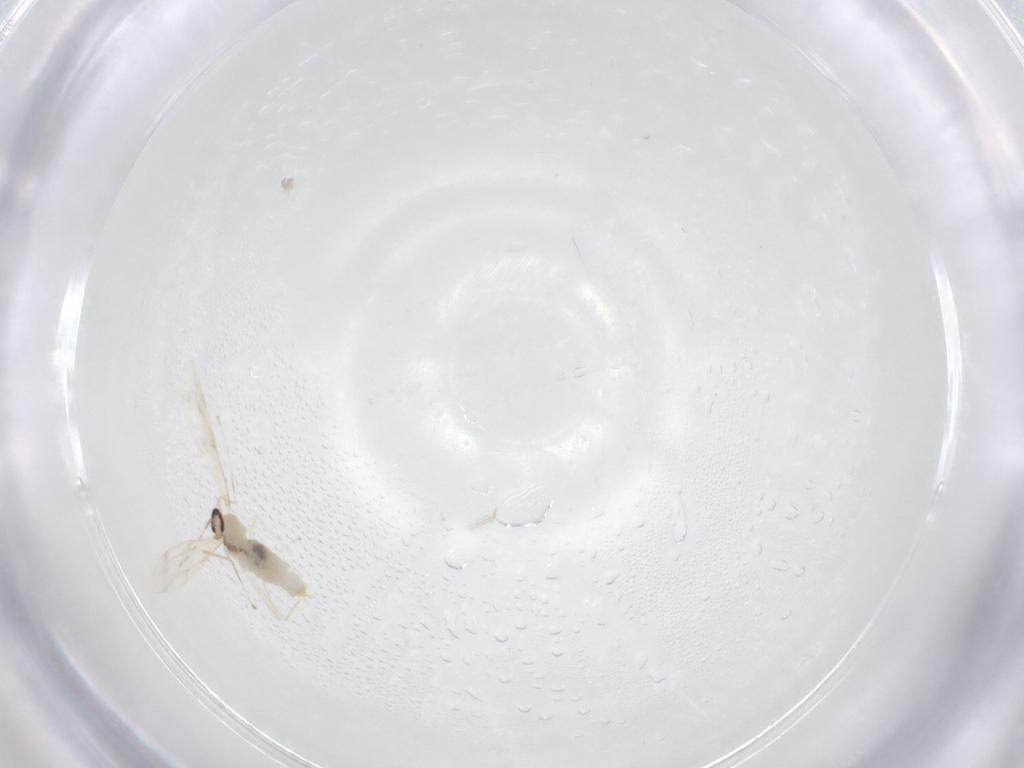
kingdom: Animalia
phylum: Arthropoda
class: Insecta
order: Diptera
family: Cecidomyiidae
